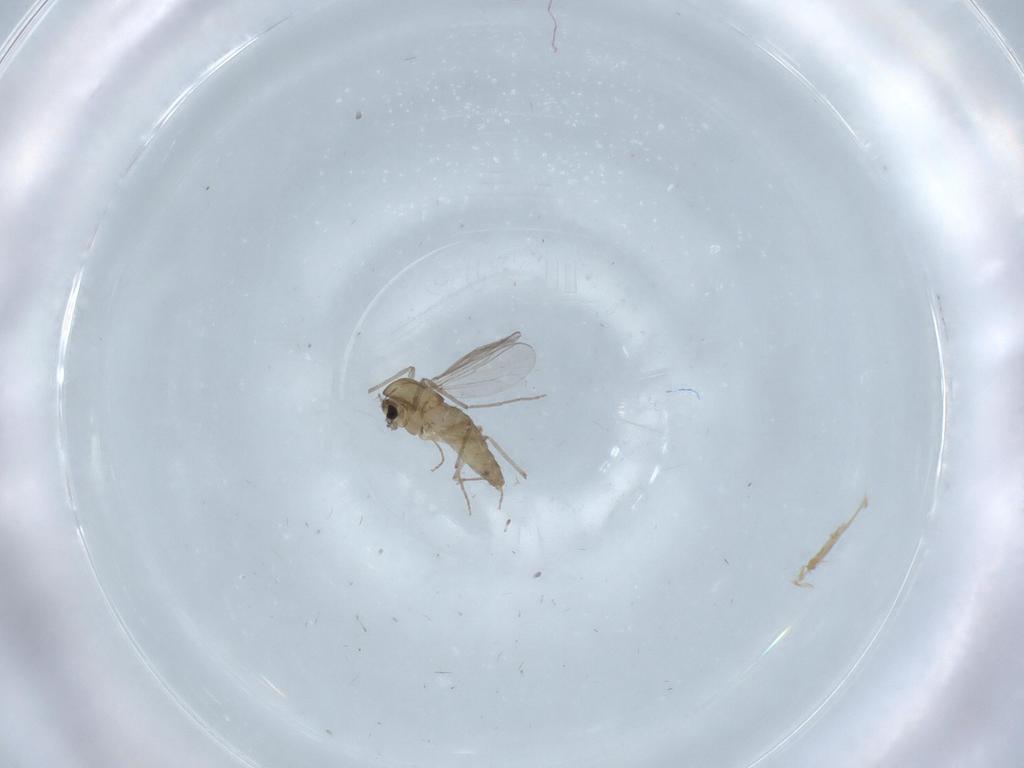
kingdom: Animalia
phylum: Arthropoda
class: Insecta
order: Diptera
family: Chironomidae
